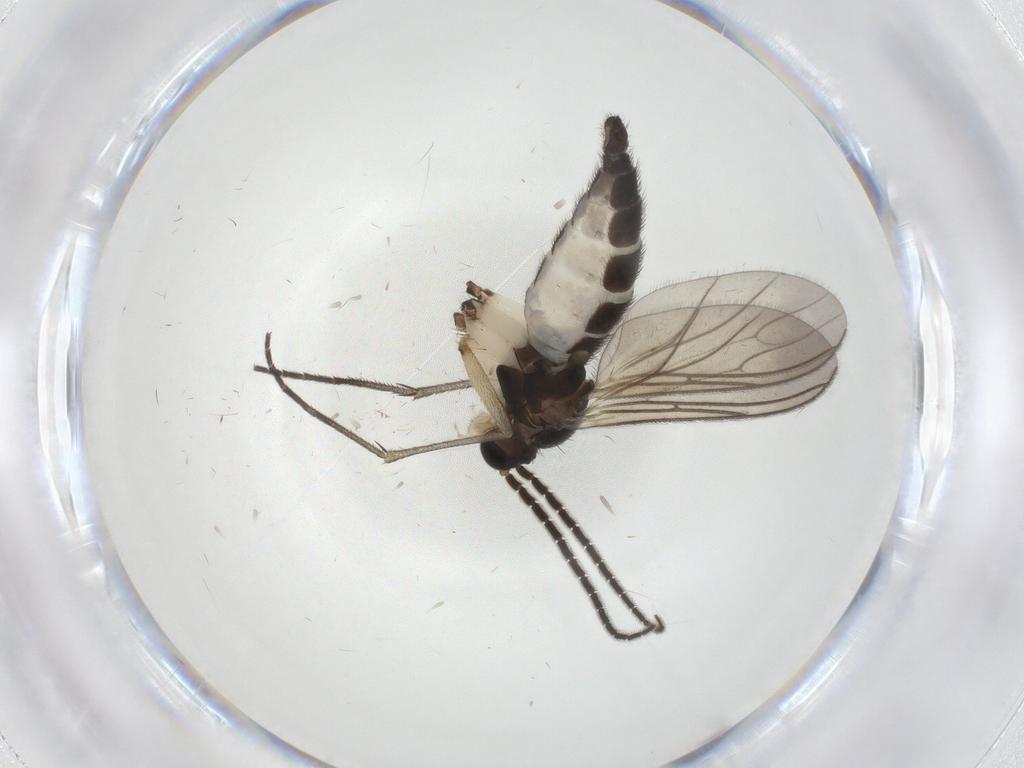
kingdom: Animalia
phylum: Arthropoda
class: Insecta
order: Diptera
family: Sciaridae
